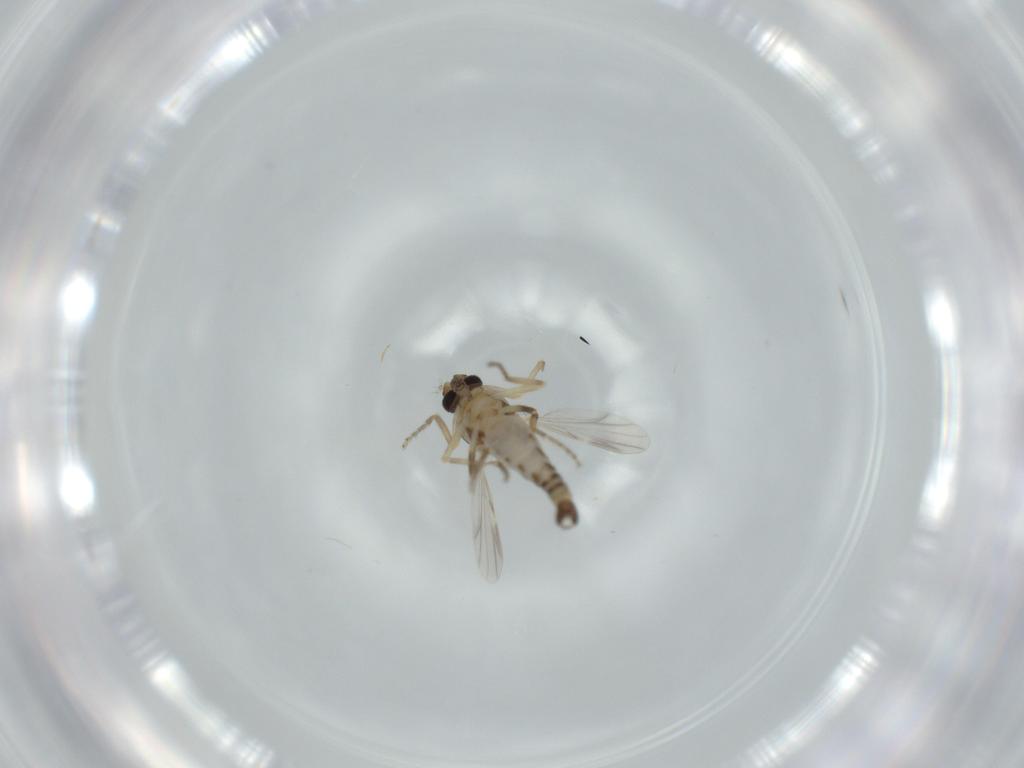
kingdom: Animalia
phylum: Arthropoda
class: Insecta
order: Diptera
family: Ceratopogonidae
